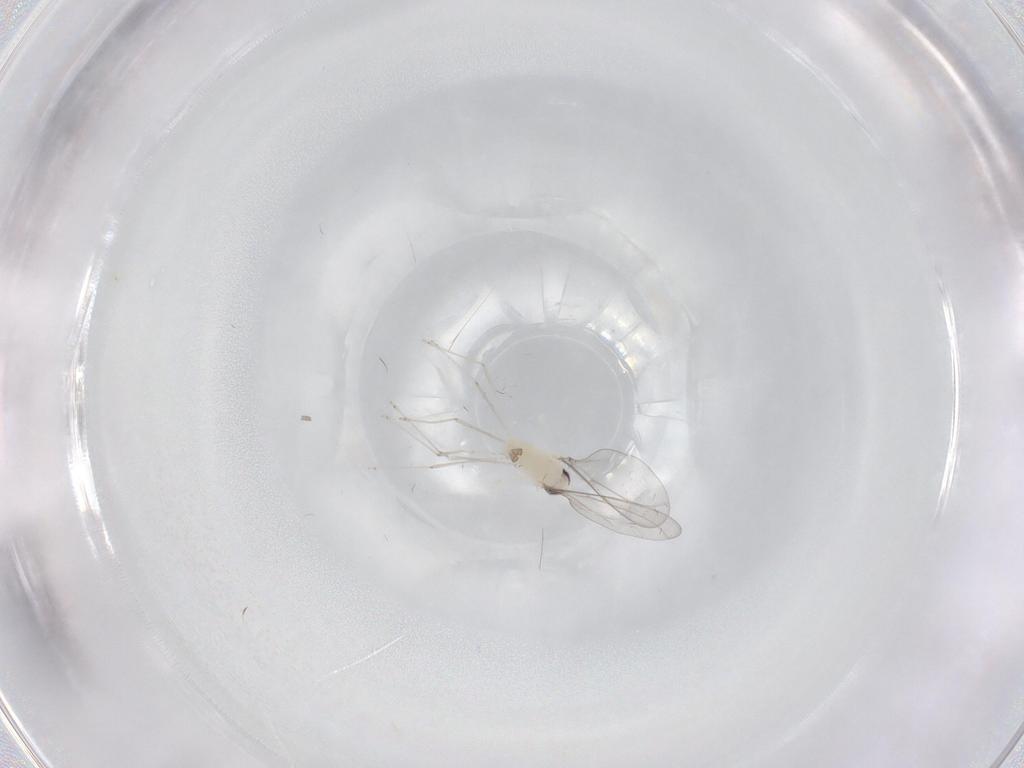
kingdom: Animalia
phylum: Arthropoda
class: Insecta
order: Diptera
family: Cecidomyiidae
